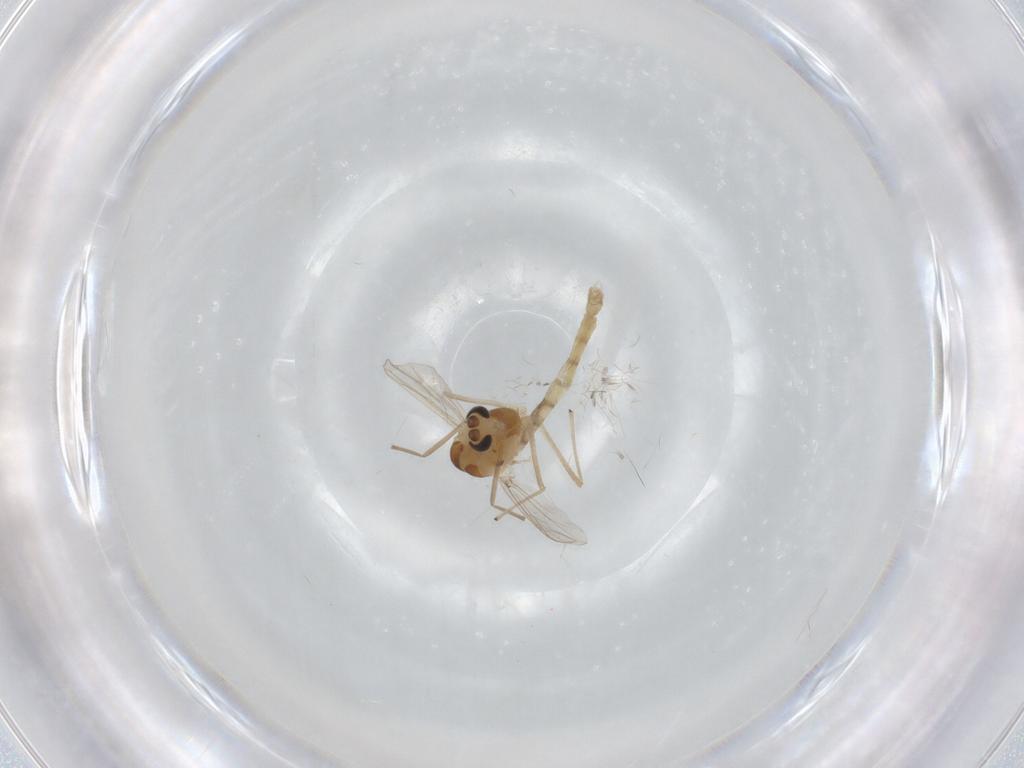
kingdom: Animalia
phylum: Arthropoda
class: Insecta
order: Diptera
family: Chironomidae
